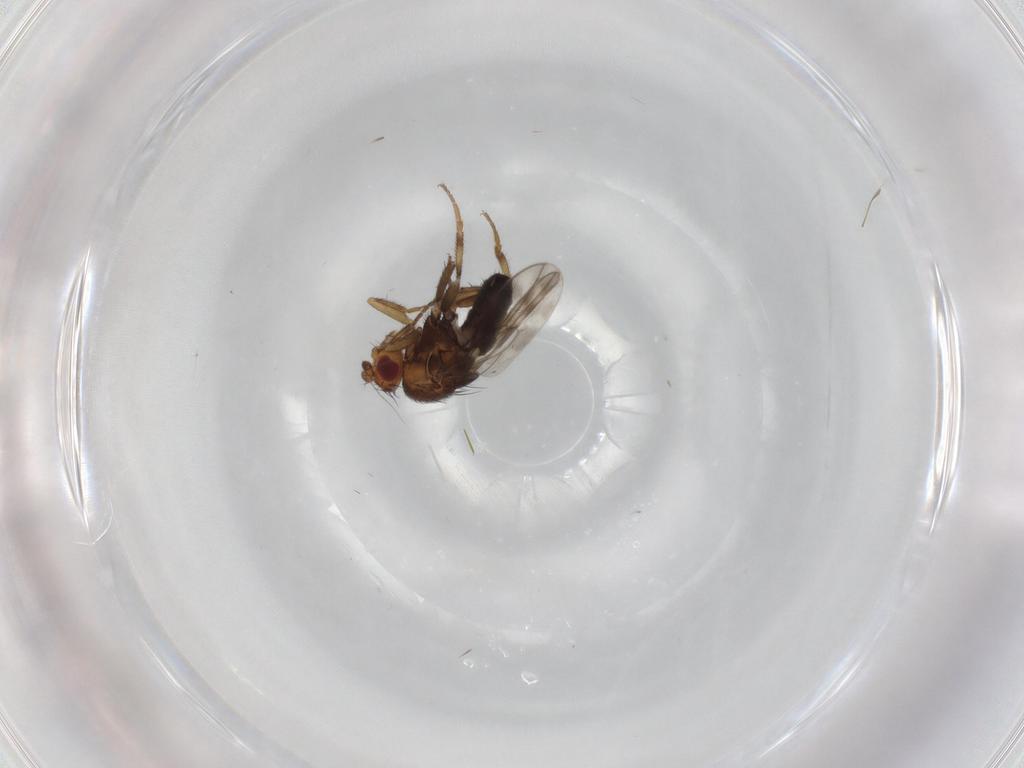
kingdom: Animalia
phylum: Arthropoda
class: Insecta
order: Diptera
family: Sphaeroceridae
